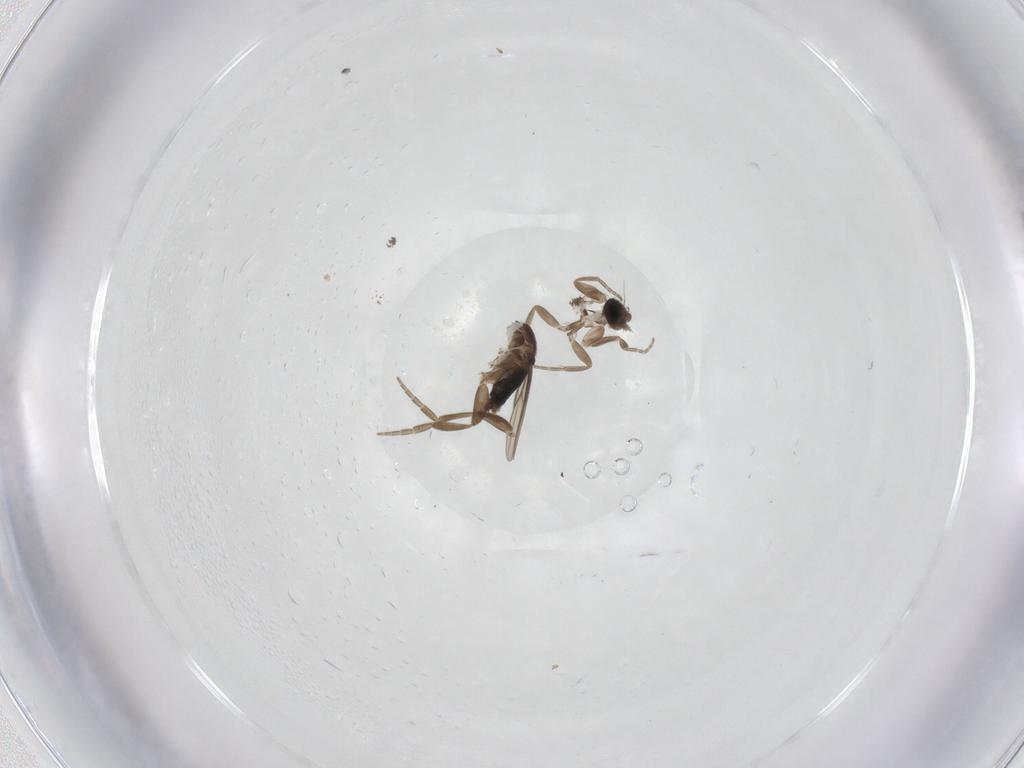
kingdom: Animalia
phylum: Arthropoda
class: Insecta
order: Diptera
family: Phoridae
